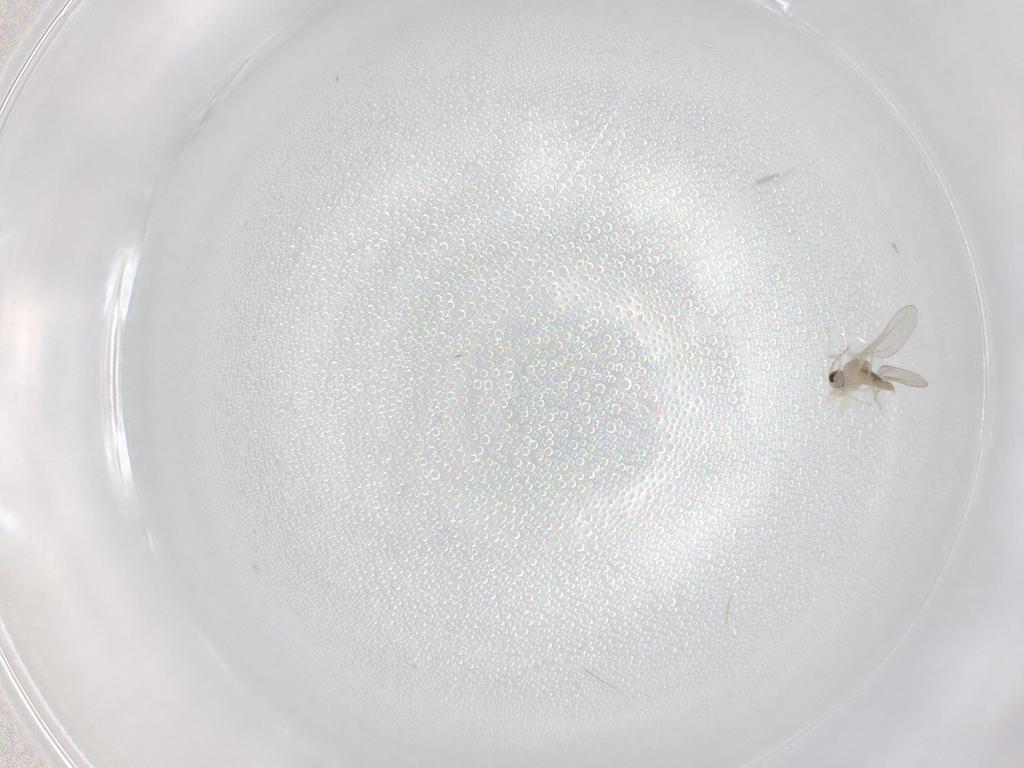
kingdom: Animalia
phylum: Arthropoda
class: Insecta
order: Diptera
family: Cecidomyiidae
